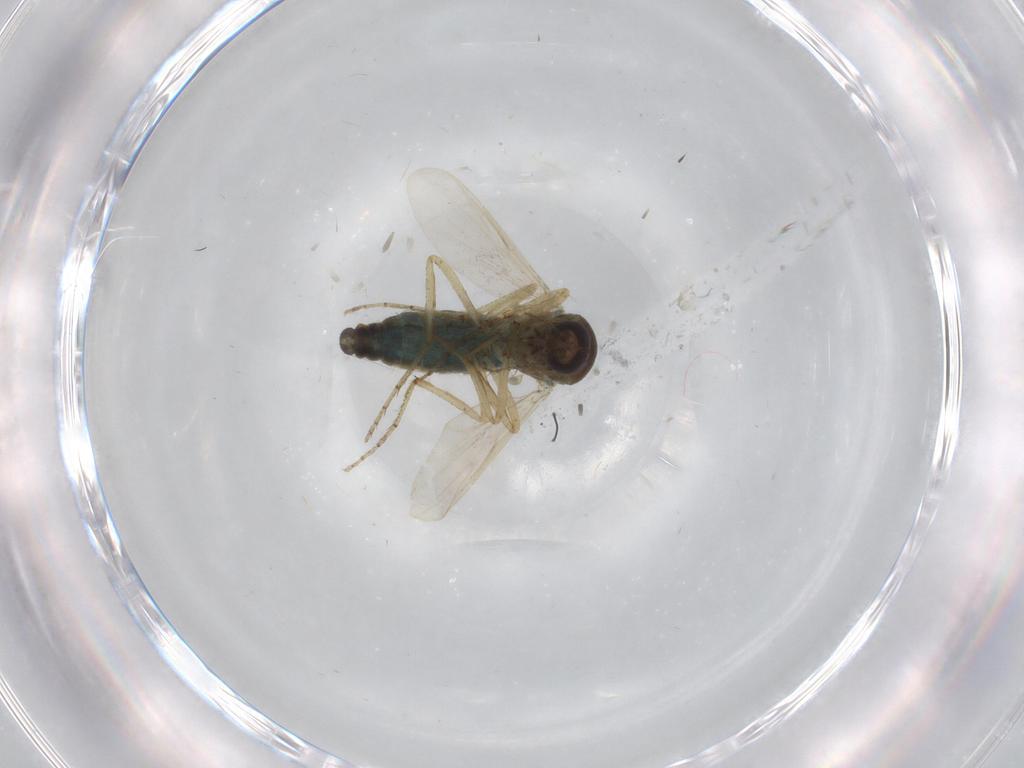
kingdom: Animalia
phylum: Arthropoda
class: Insecta
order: Diptera
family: Ceratopogonidae
